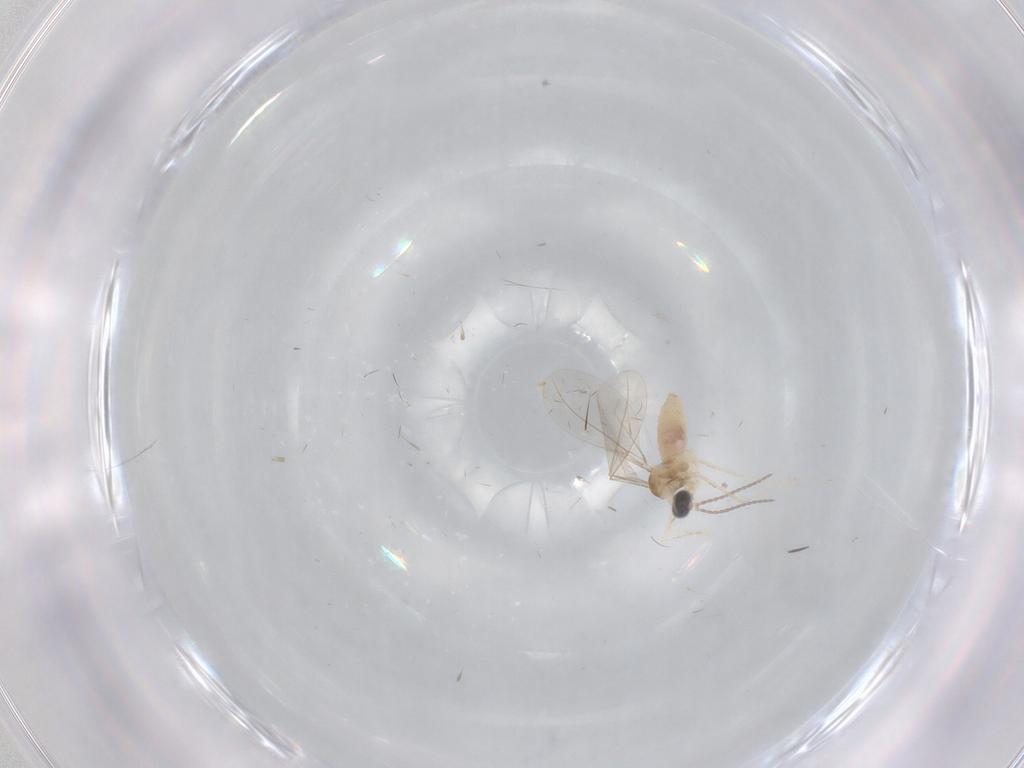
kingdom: Animalia
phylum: Arthropoda
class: Insecta
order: Diptera
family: Cecidomyiidae
